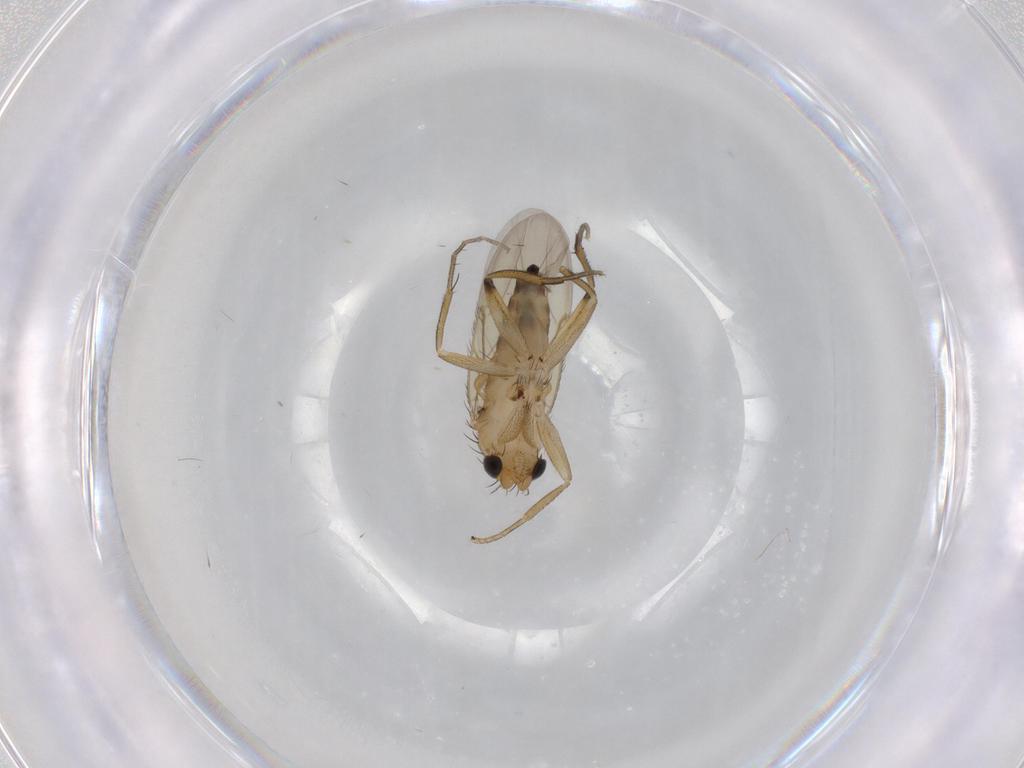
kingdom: Animalia
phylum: Arthropoda
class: Insecta
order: Diptera
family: Phoridae
